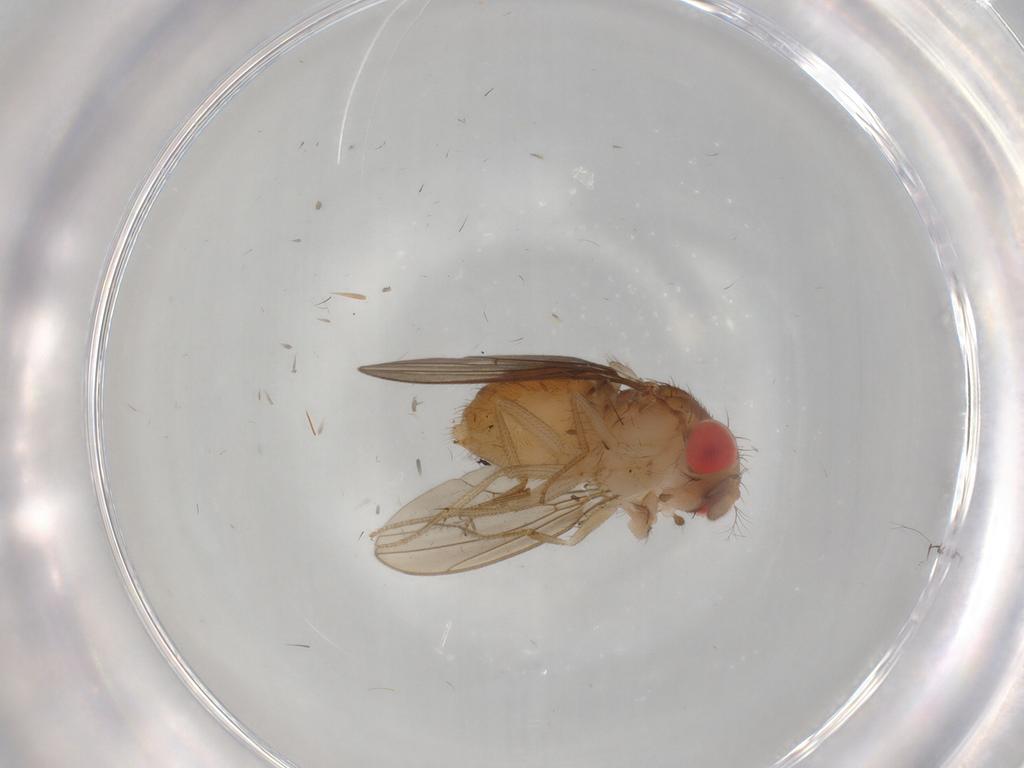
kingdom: Animalia
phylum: Arthropoda
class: Insecta
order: Diptera
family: Drosophilidae
